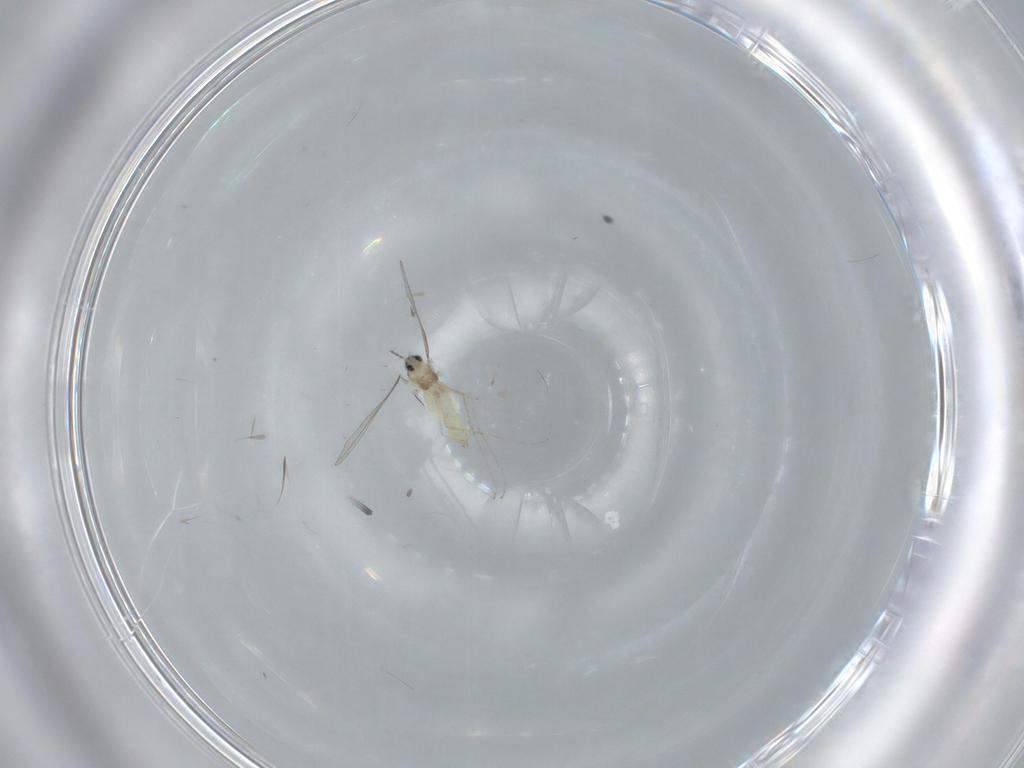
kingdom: Animalia
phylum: Arthropoda
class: Insecta
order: Diptera
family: Cecidomyiidae
